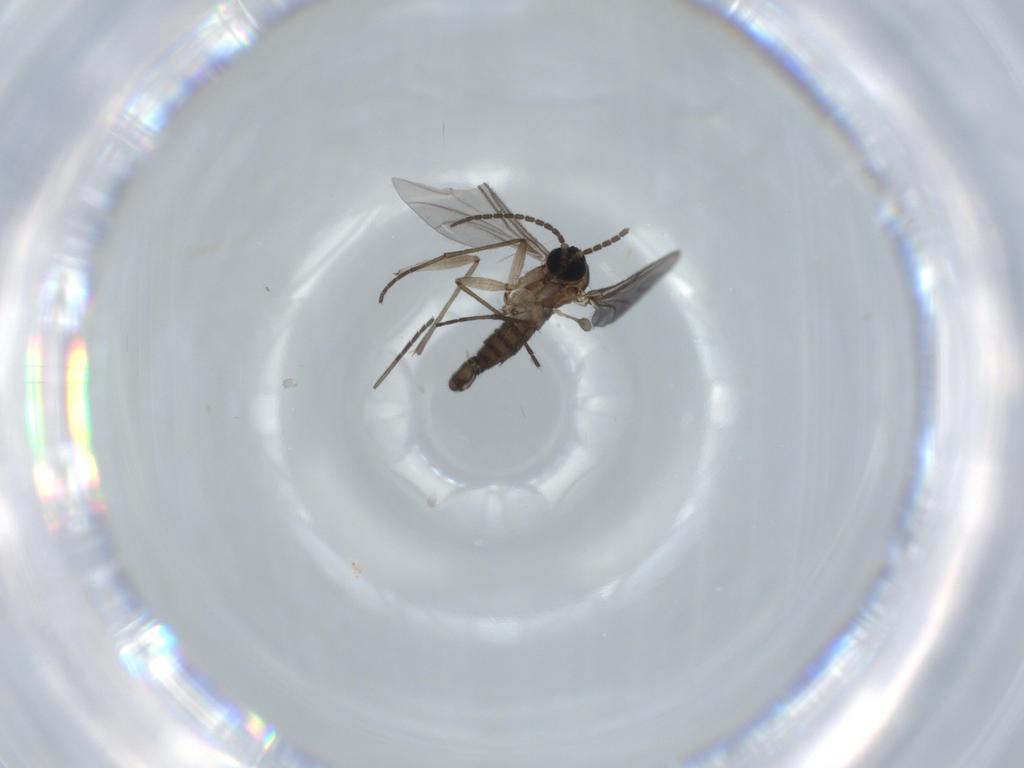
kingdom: Animalia
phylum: Arthropoda
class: Insecta
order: Diptera
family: Sciaridae
